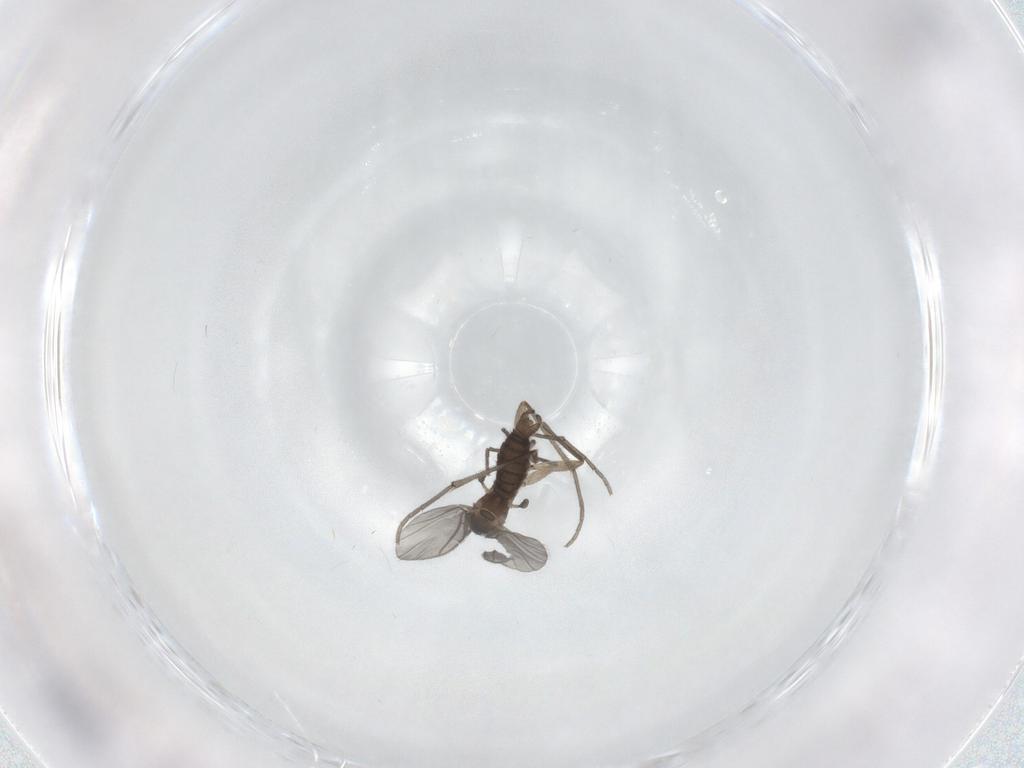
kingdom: Animalia
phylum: Arthropoda
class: Insecta
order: Diptera
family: Sciaridae
